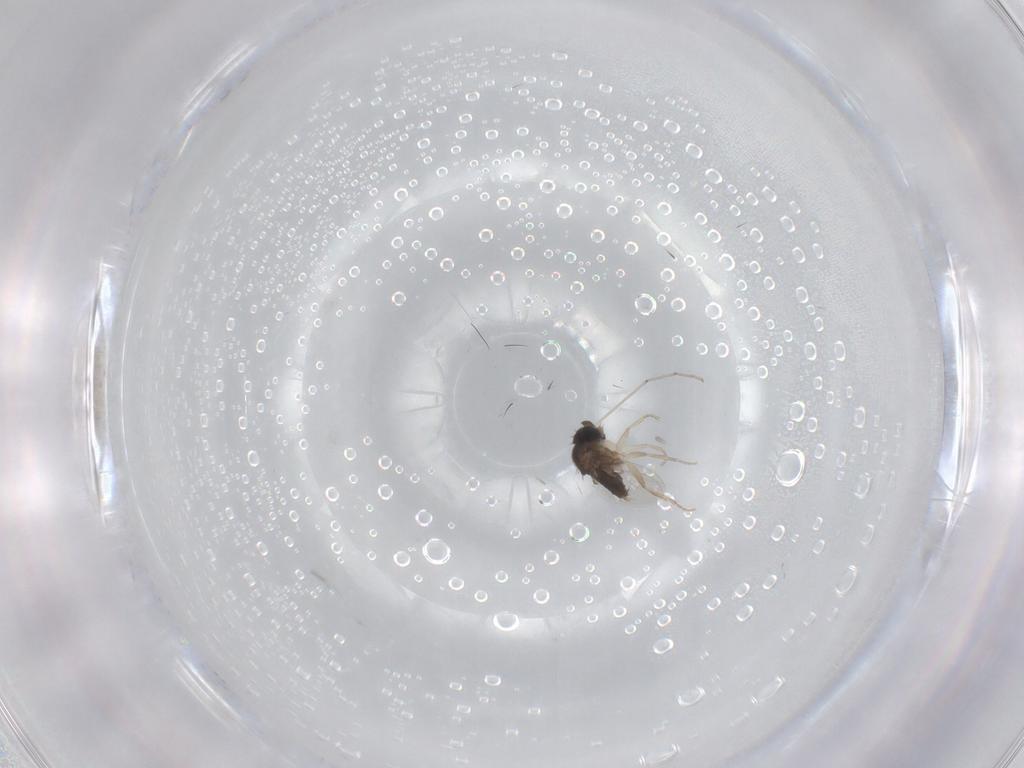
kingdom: Animalia
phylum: Arthropoda
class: Insecta
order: Diptera
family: Phoridae
